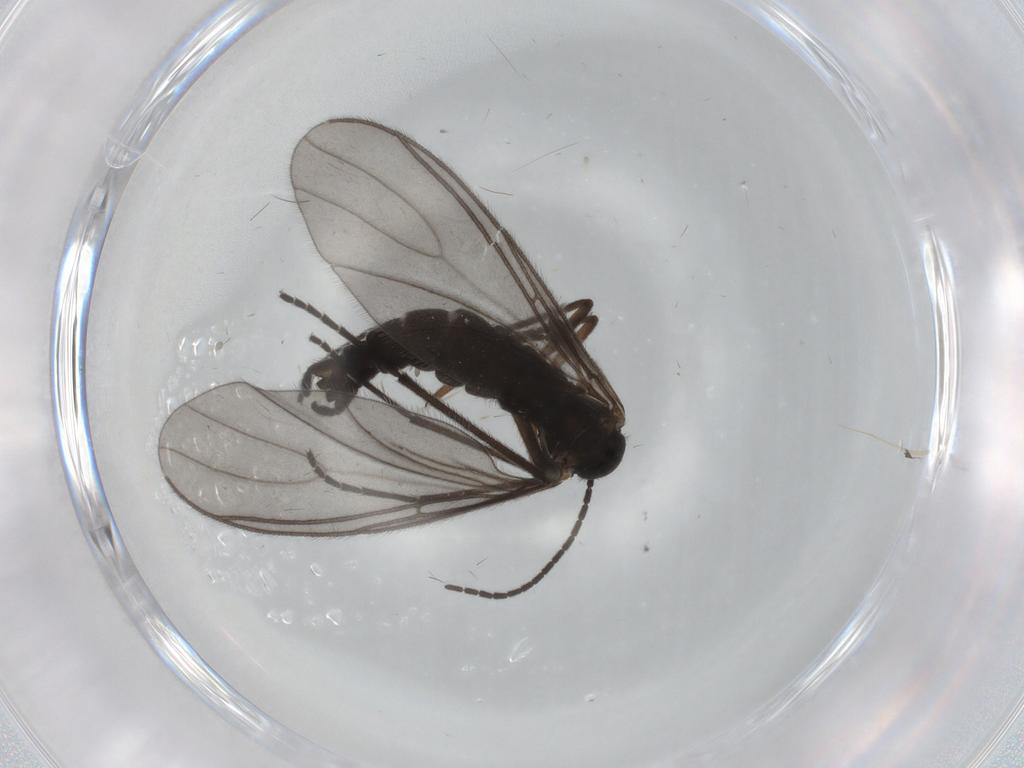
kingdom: Animalia
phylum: Arthropoda
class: Insecta
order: Diptera
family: Sciaridae
